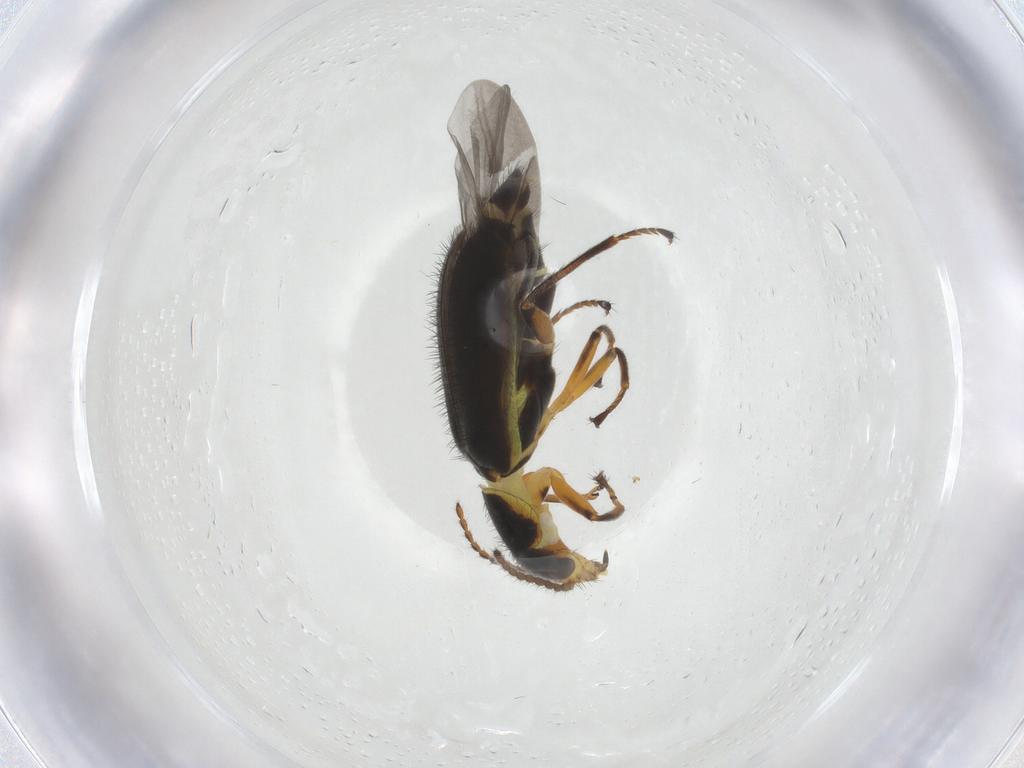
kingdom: Animalia
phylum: Arthropoda
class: Insecta
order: Coleoptera
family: Melyridae
